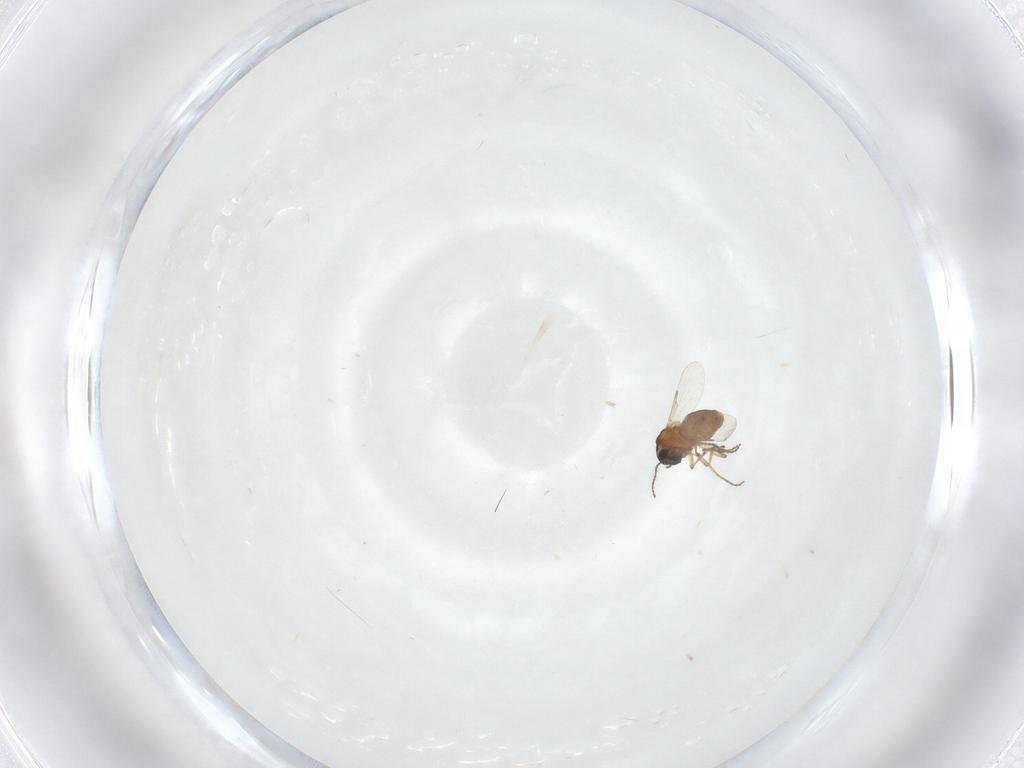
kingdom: Animalia
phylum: Arthropoda
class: Insecta
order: Diptera
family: Ceratopogonidae
